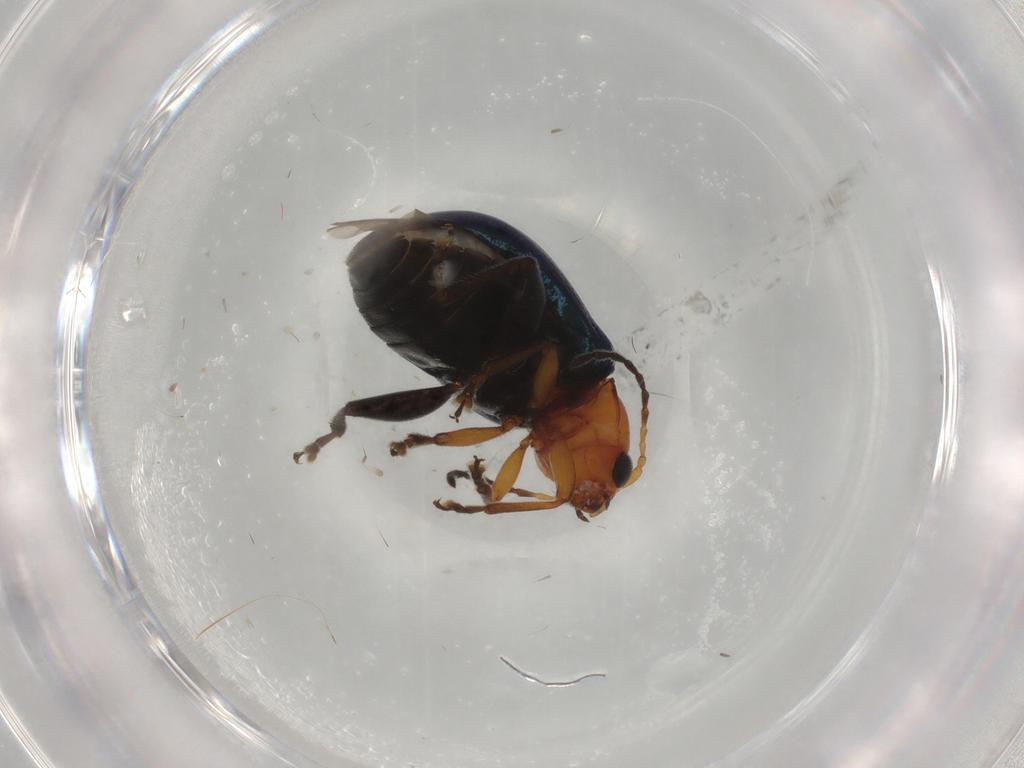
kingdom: Animalia
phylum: Arthropoda
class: Insecta
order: Coleoptera
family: Chrysomelidae
